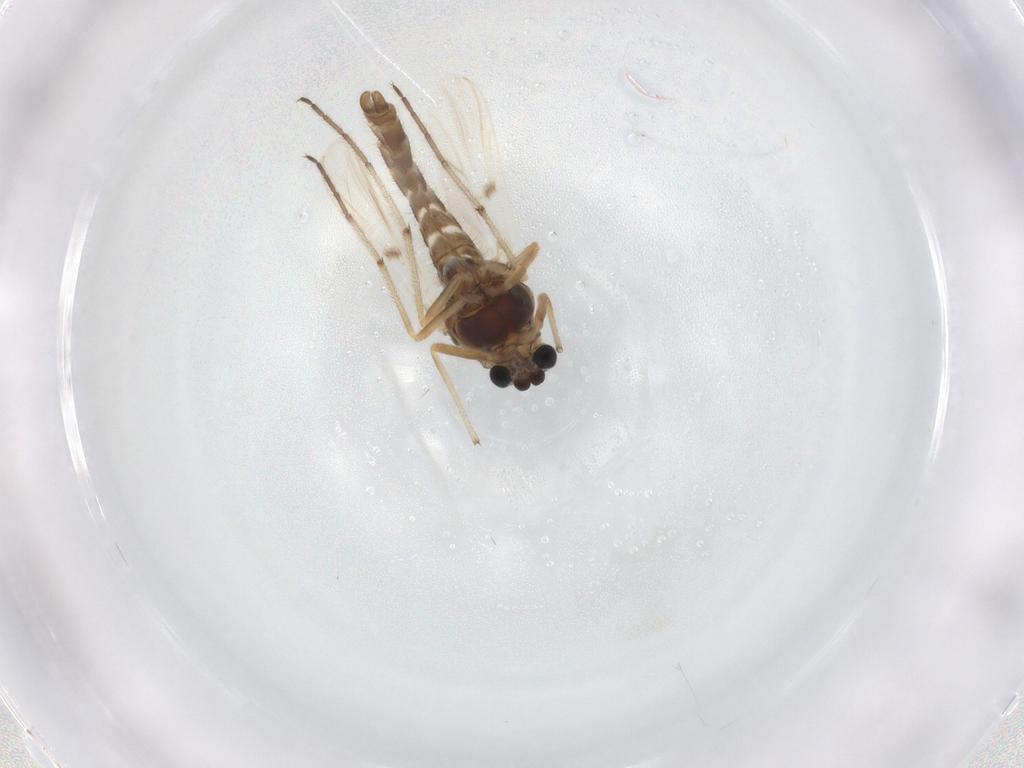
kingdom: Animalia
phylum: Arthropoda
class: Insecta
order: Diptera
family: Chironomidae
